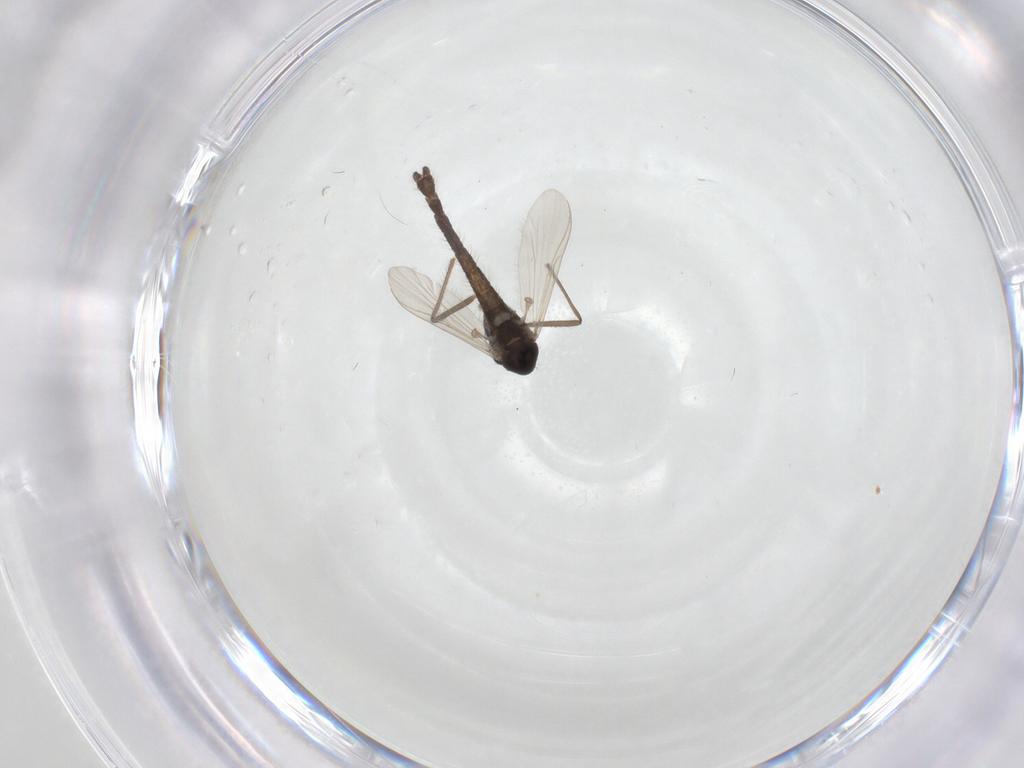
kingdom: Animalia
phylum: Arthropoda
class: Insecta
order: Diptera
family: Chironomidae
